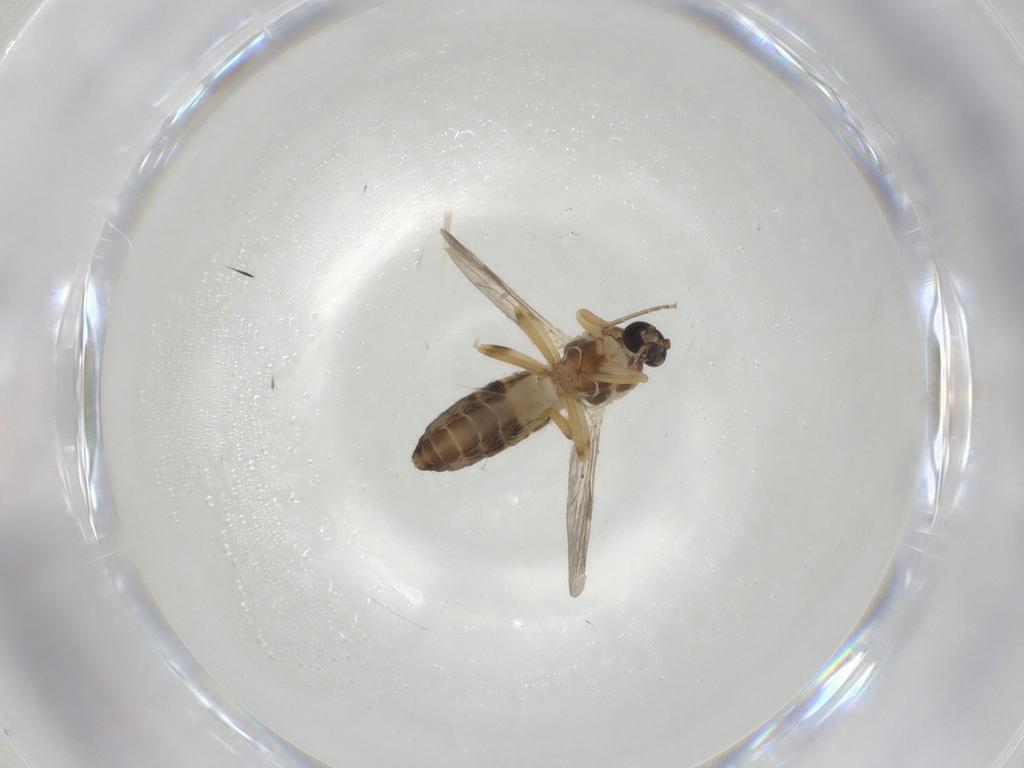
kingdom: Animalia
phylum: Arthropoda
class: Insecta
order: Diptera
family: Ceratopogonidae
